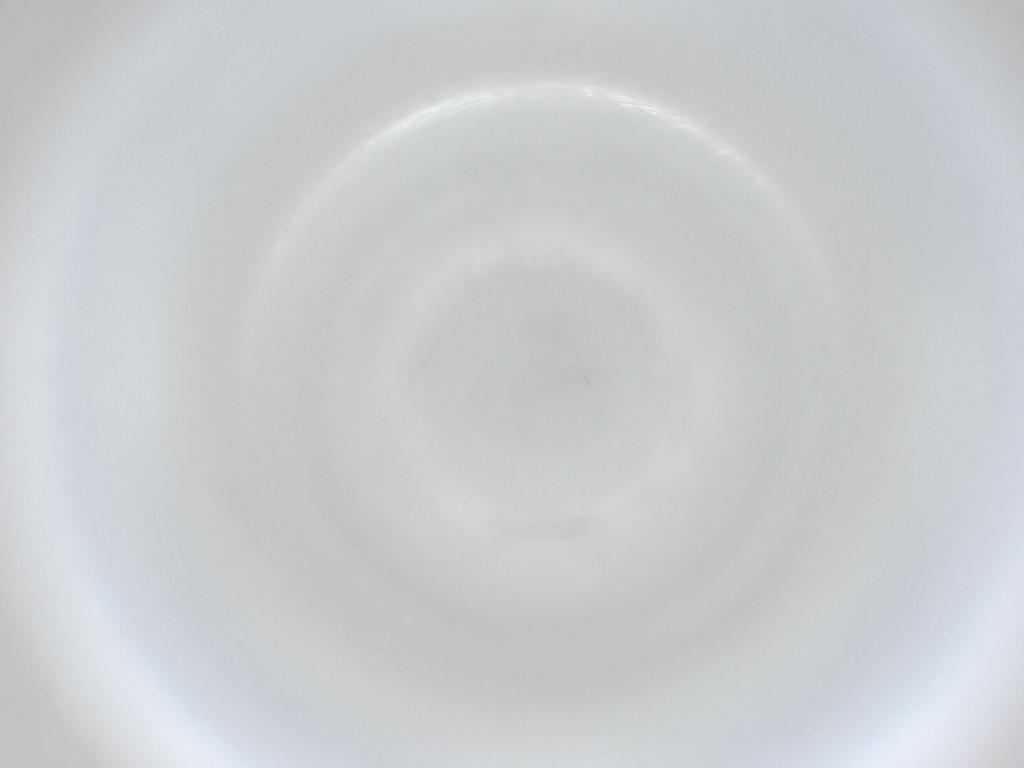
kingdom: Animalia
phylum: Arthropoda
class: Insecta
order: Diptera
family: Cecidomyiidae
